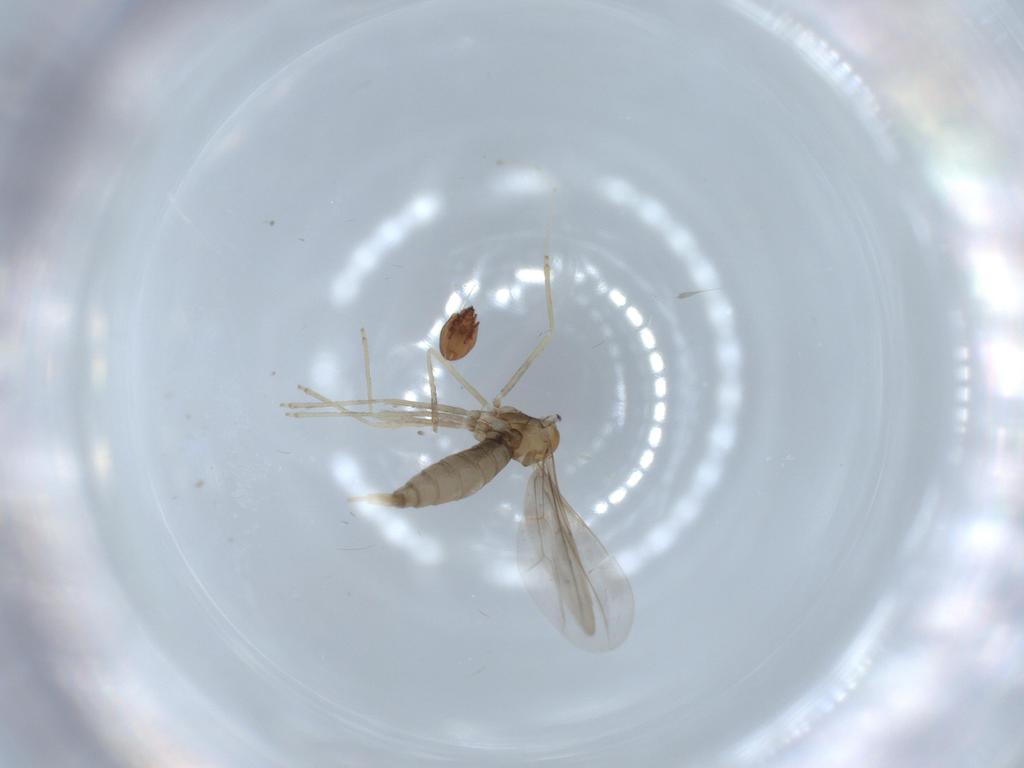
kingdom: Animalia
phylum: Arthropoda
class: Insecta
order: Diptera
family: Cecidomyiidae
